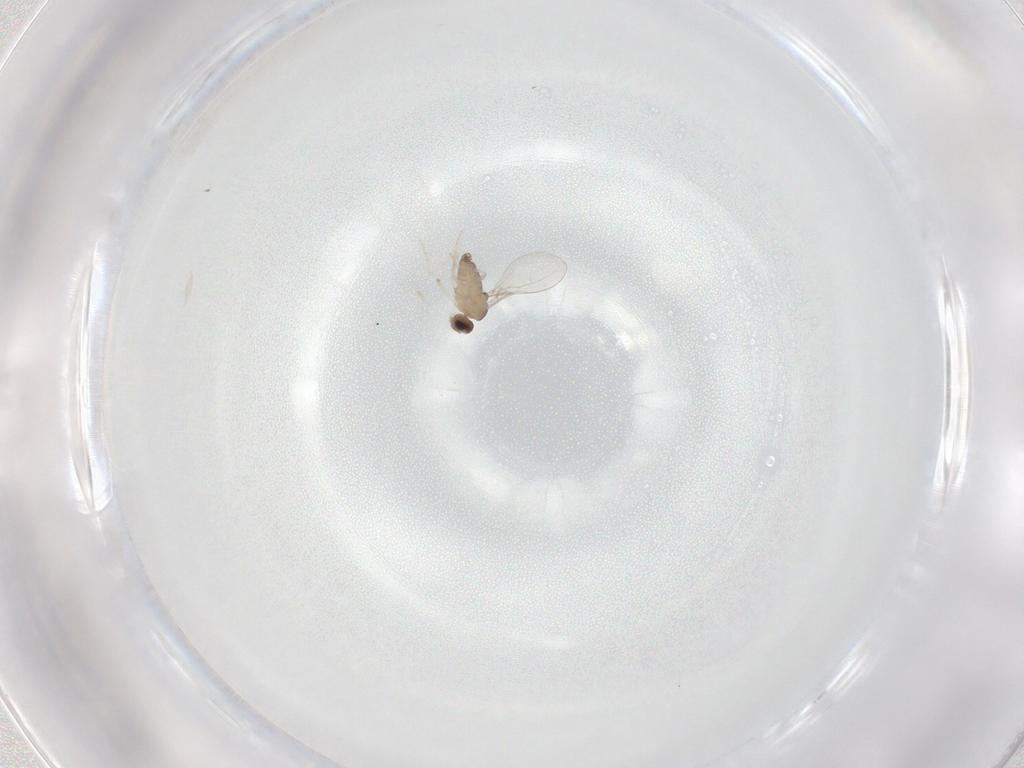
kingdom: Animalia
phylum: Arthropoda
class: Insecta
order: Diptera
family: Cecidomyiidae
